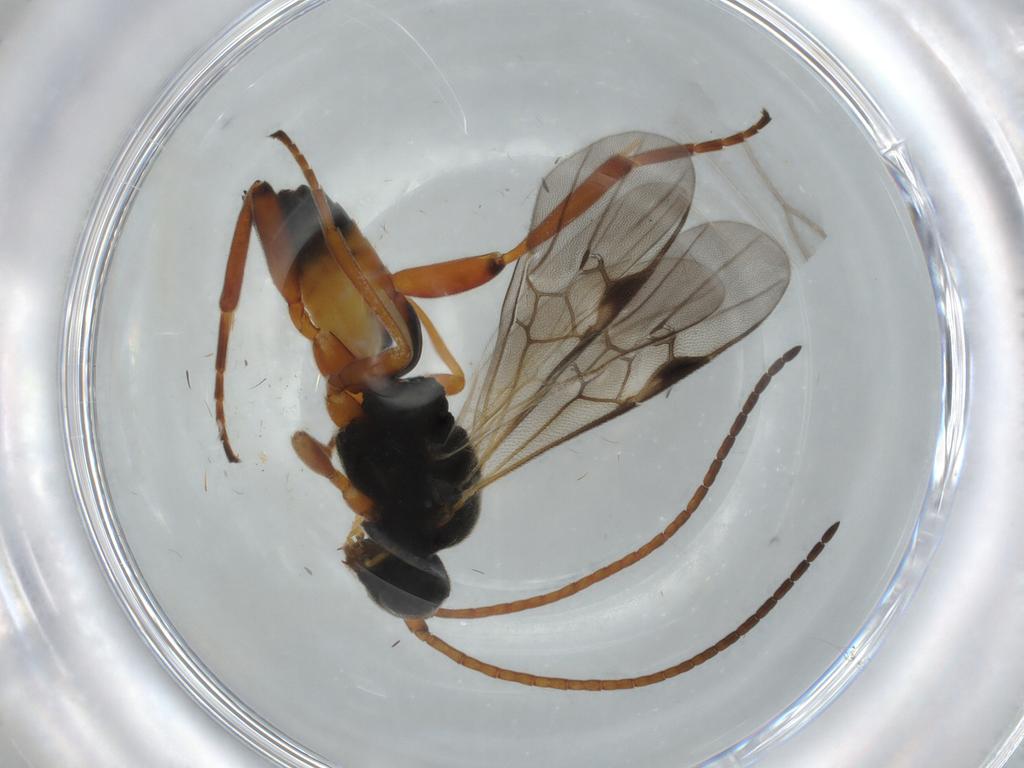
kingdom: Animalia
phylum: Arthropoda
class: Insecta
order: Hymenoptera
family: Braconidae
